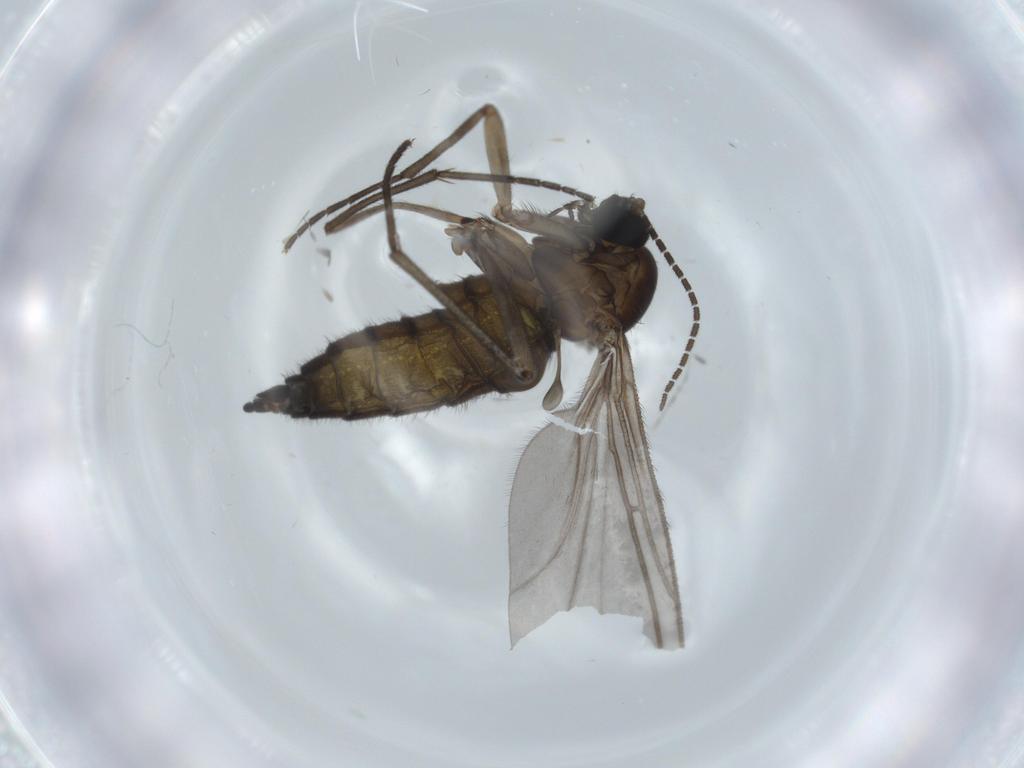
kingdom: Animalia
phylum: Arthropoda
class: Insecta
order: Diptera
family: Sciaridae
